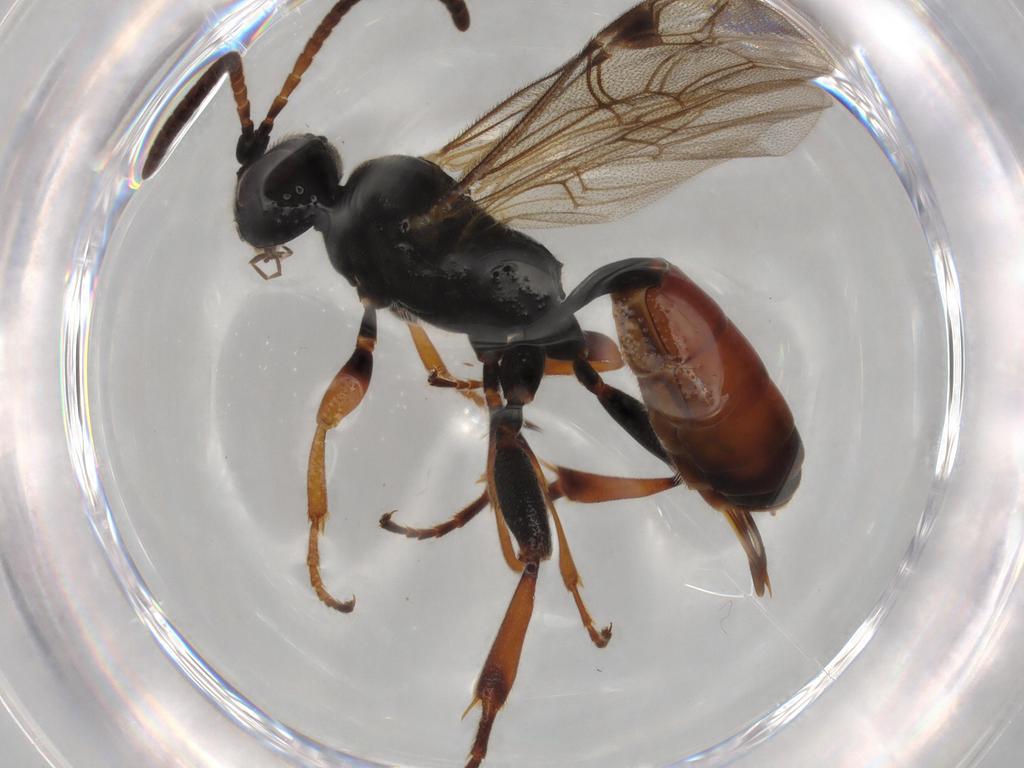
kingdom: Animalia
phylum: Arthropoda
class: Insecta
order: Hymenoptera
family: Ichneumonidae
